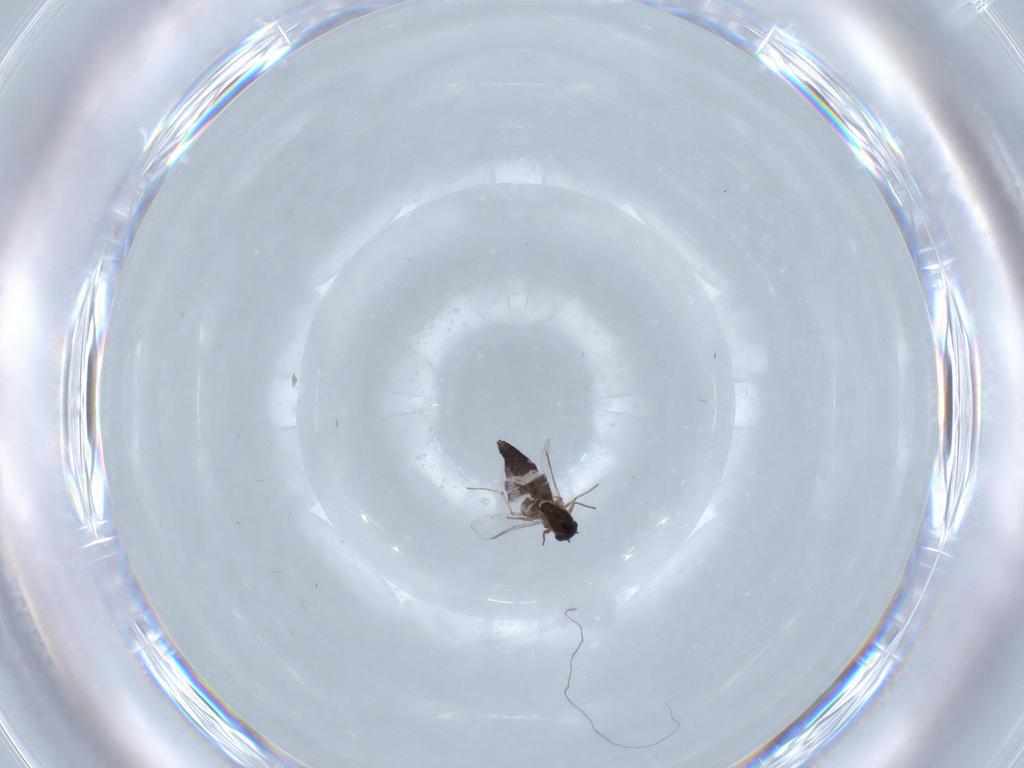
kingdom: Animalia
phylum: Arthropoda
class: Insecta
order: Diptera
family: Chironomidae
